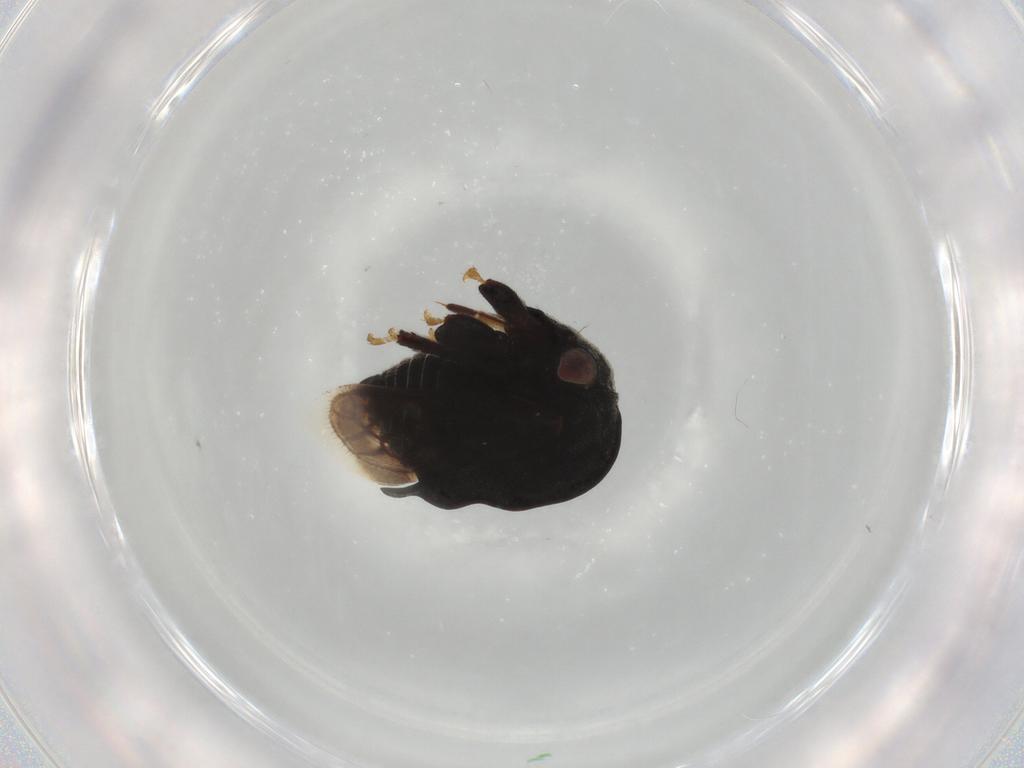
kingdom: Animalia
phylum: Arthropoda
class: Insecta
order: Hemiptera
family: Membracidae
